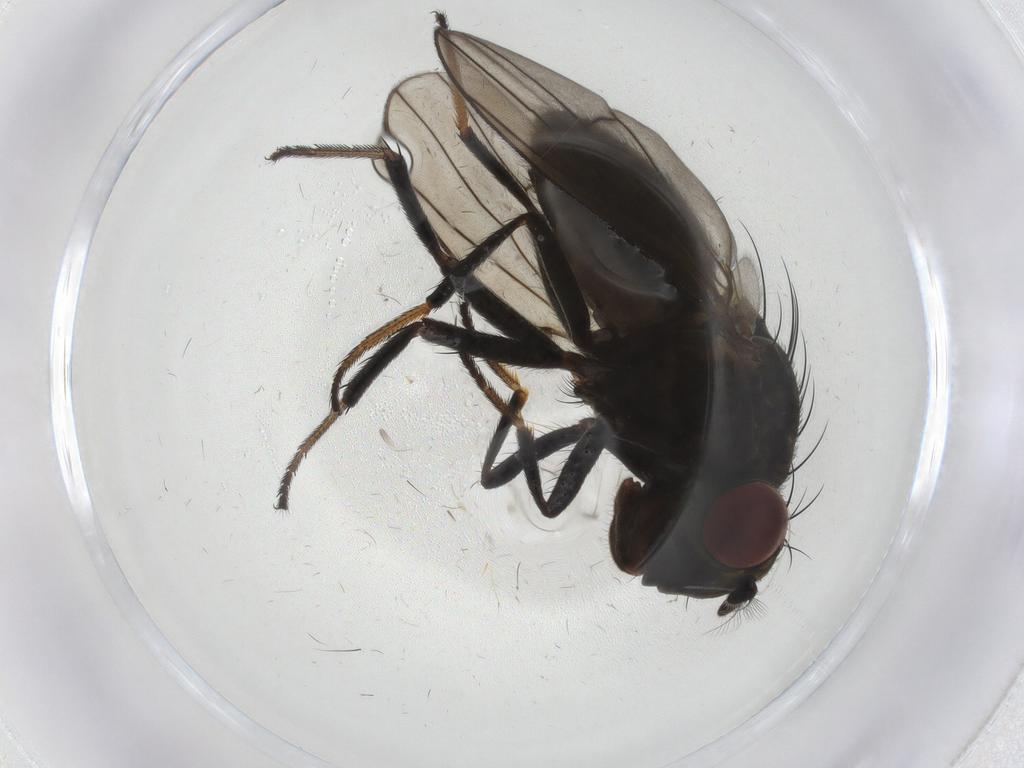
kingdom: Animalia
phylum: Arthropoda
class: Insecta
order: Diptera
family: Ephydridae
